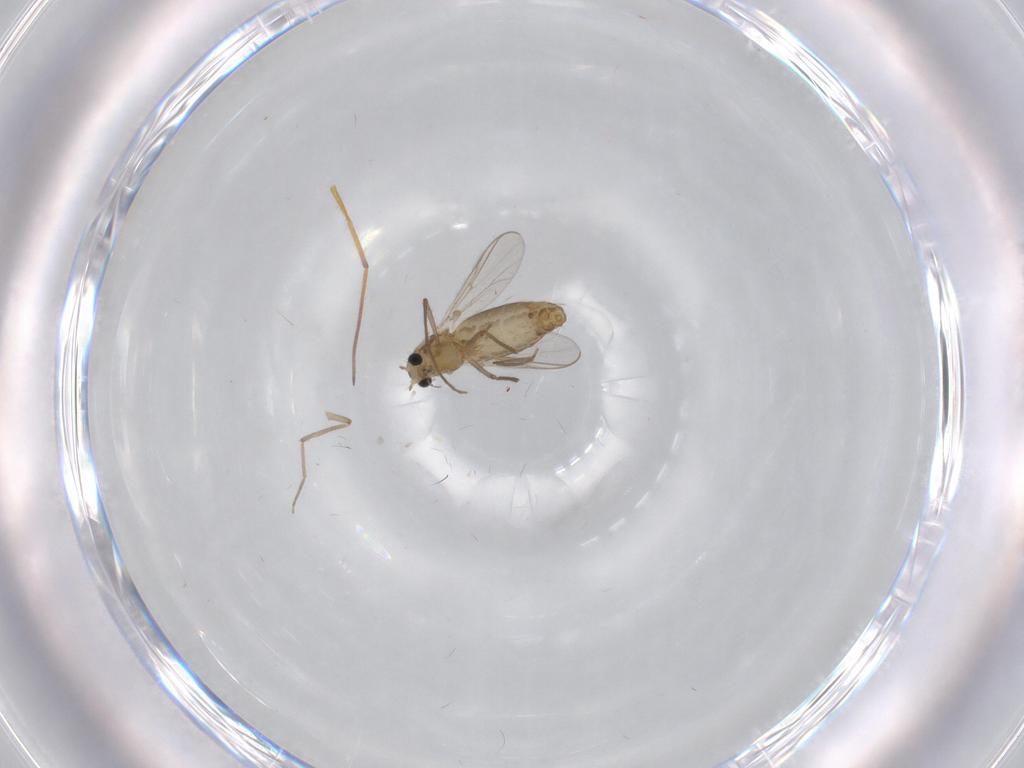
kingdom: Animalia
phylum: Arthropoda
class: Insecta
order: Diptera
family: Chironomidae
